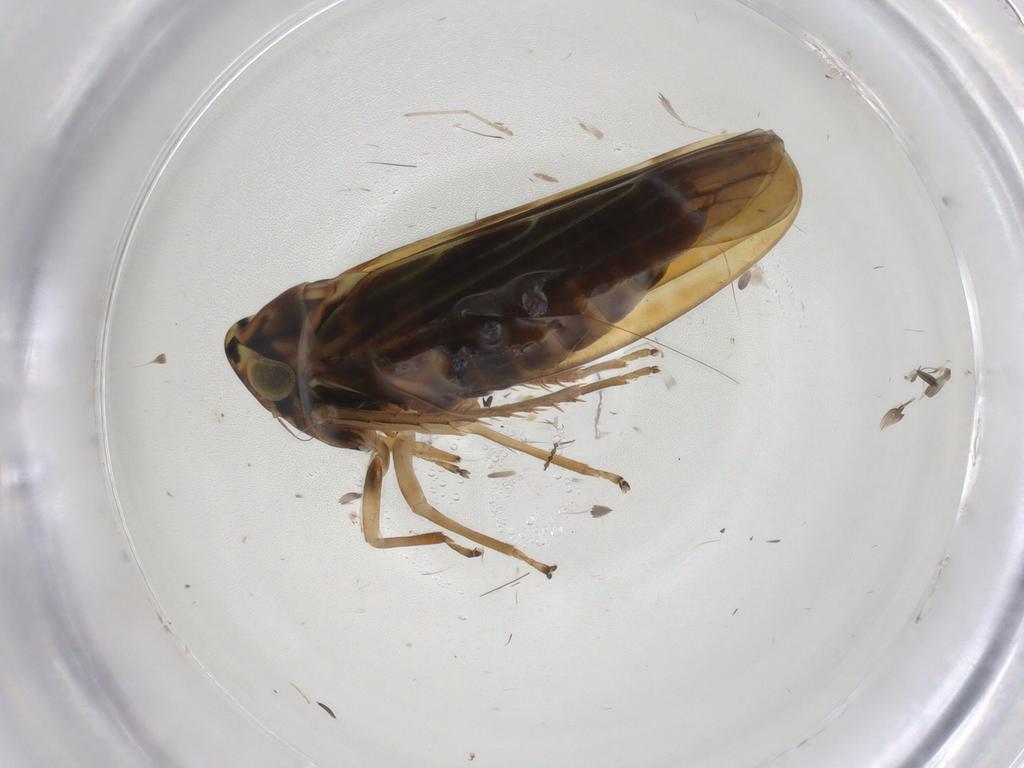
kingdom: Animalia
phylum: Arthropoda
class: Insecta
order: Hemiptera
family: Cicadellidae
